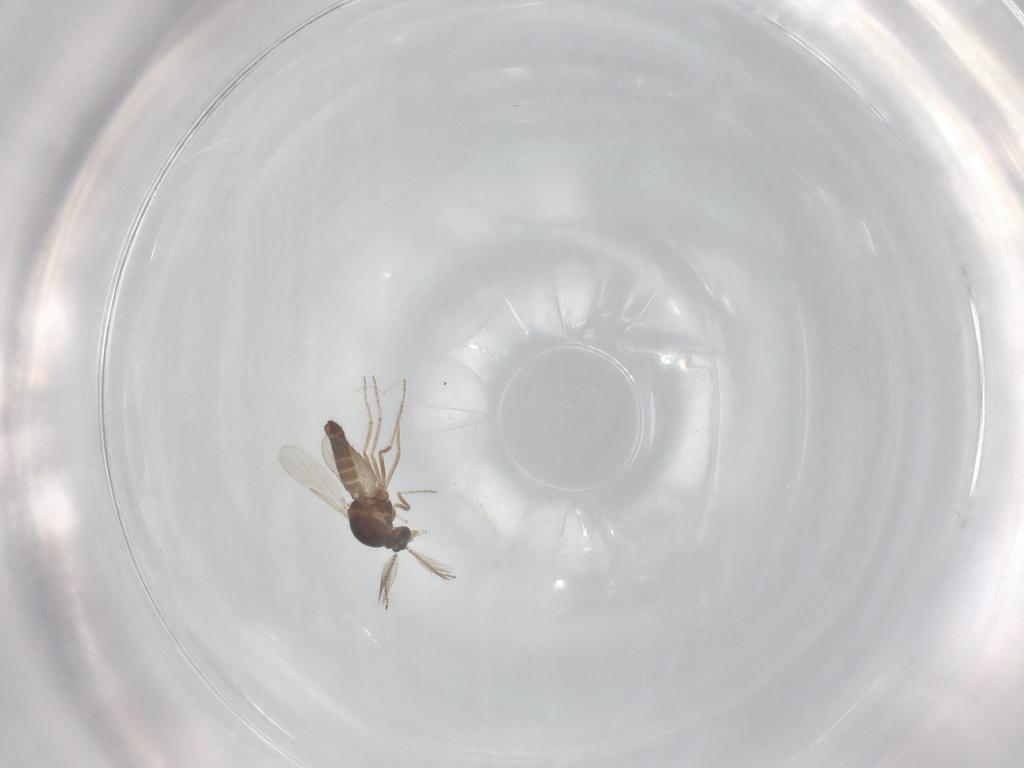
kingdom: Animalia
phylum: Arthropoda
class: Insecta
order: Diptera
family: Ceratopogonidae
